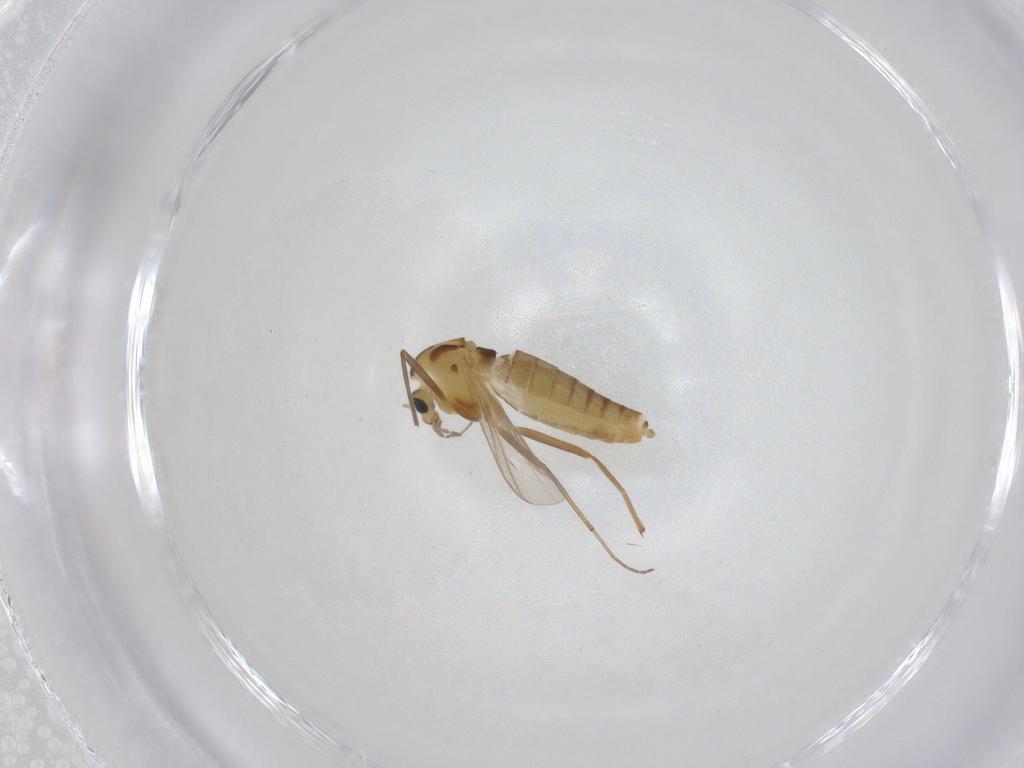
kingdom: Animalia
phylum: Arthropoda
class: Insecta
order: Diptera
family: Chironomidae
